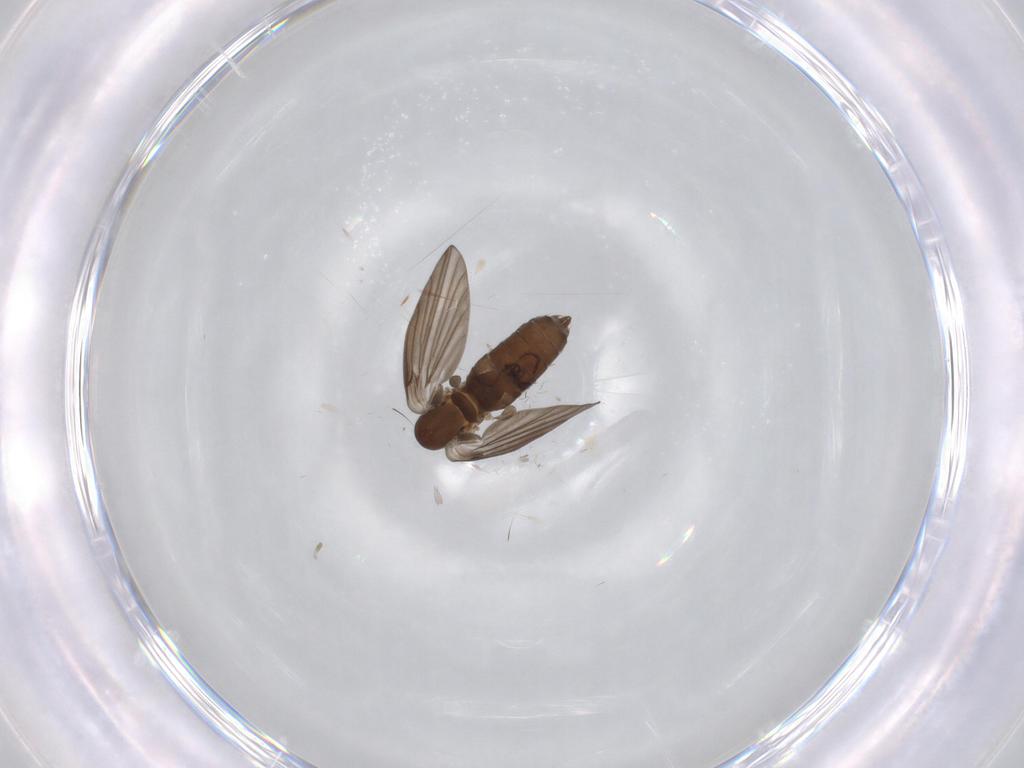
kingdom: Animalia
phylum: Arthropoda
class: Insecta
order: Diptera
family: Psychodidae
